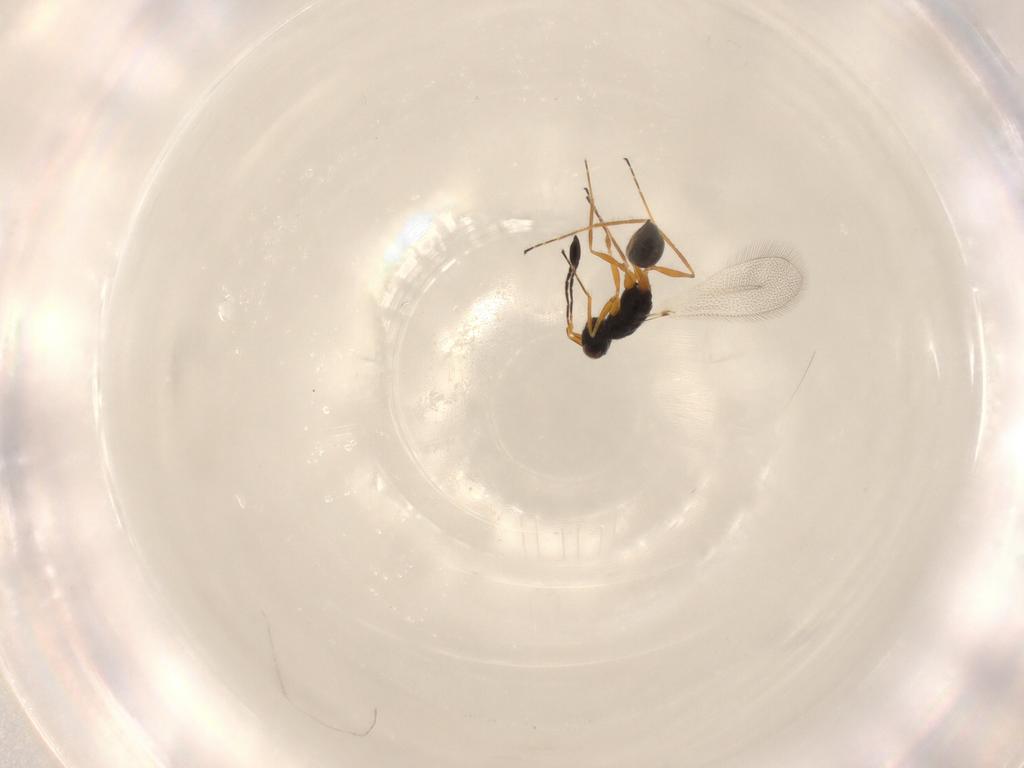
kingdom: Animalia
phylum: Arthropoda
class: Insecta
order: Hymenoptera
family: Mymaridae
